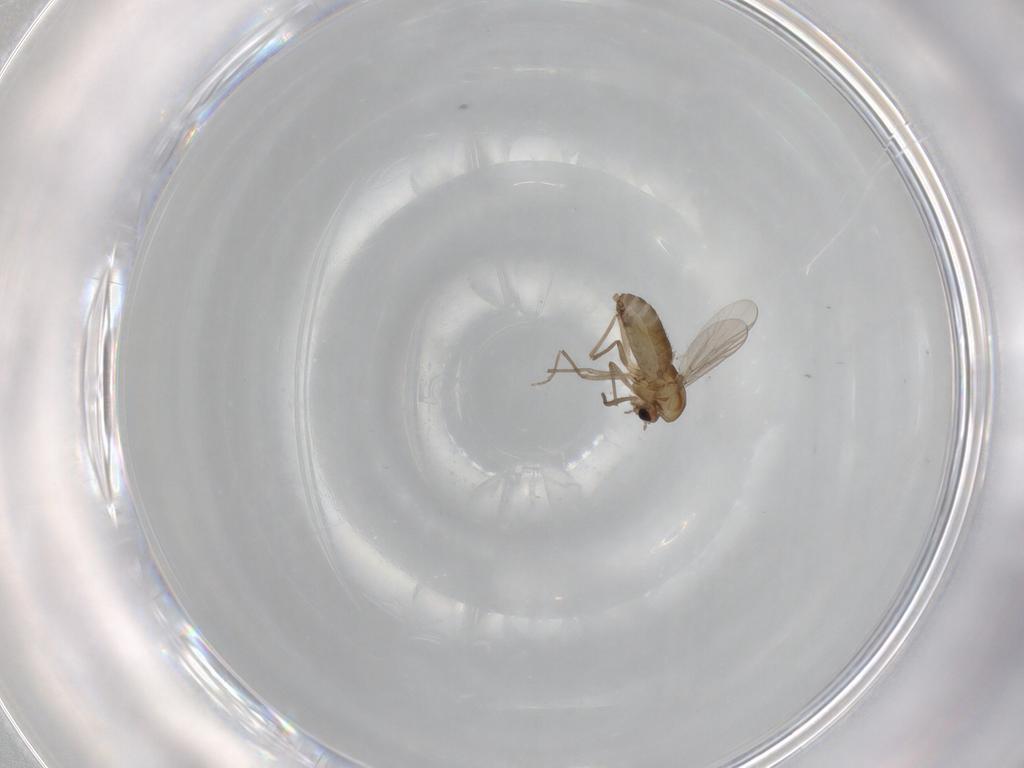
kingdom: Animalia
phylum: Arthropoda
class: Insecta
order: Diptera
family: Chironomidae
